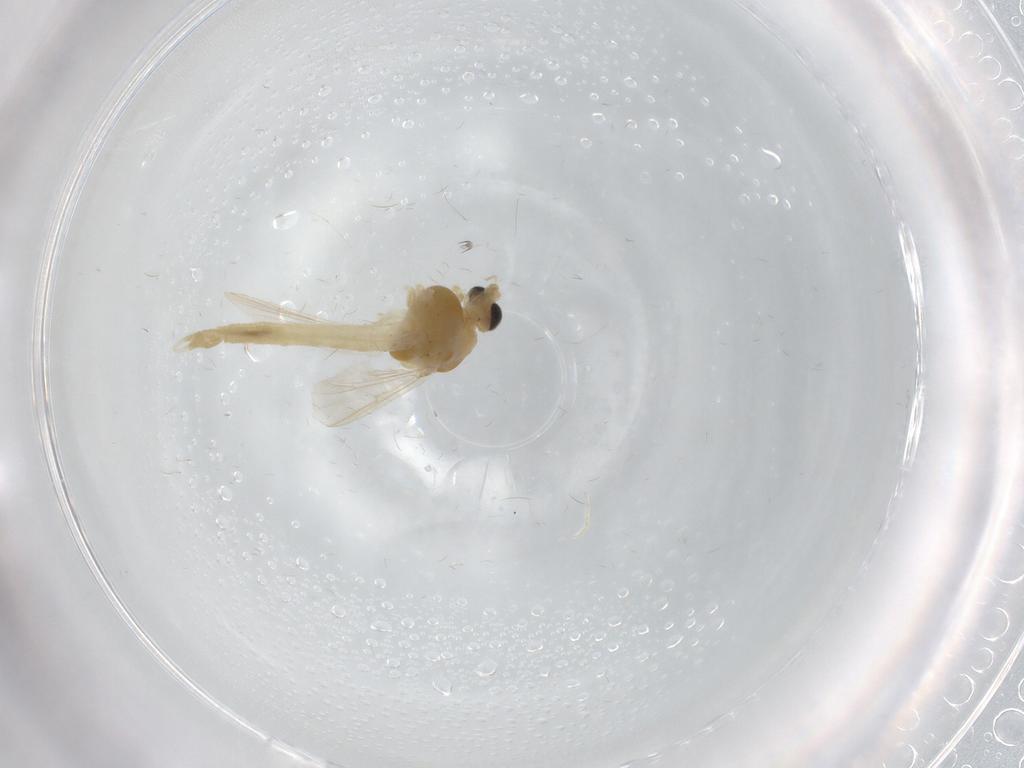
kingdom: Animalia
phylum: Arthropoda
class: Insecta
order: Diptera
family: Chironomidae
